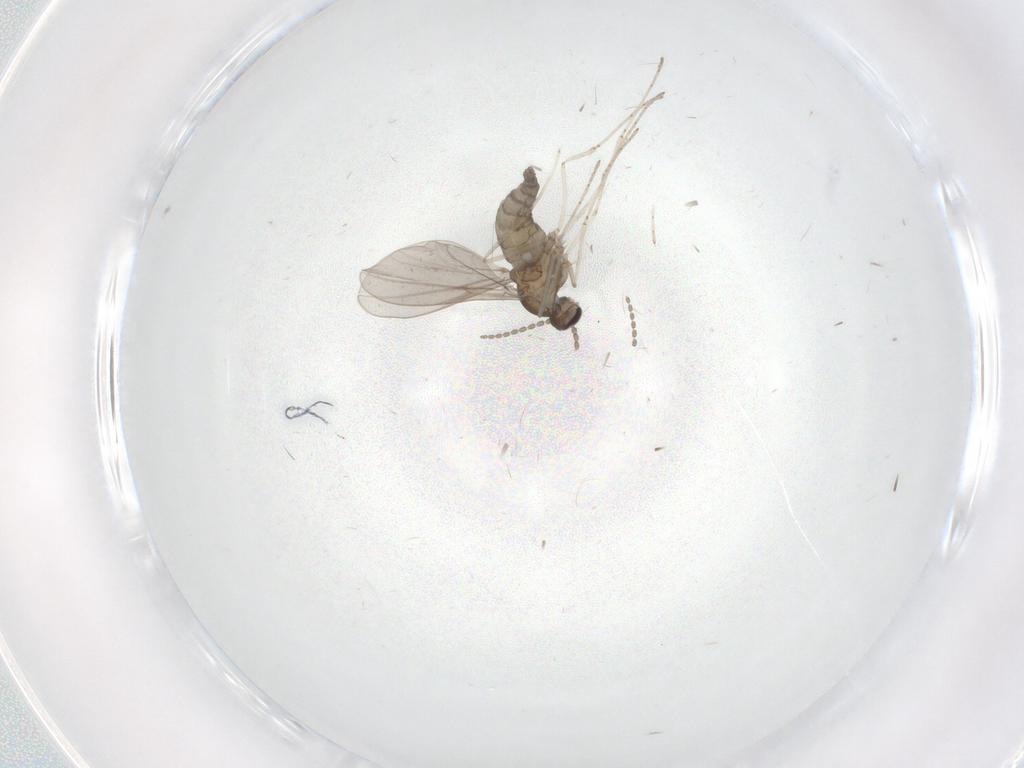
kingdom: Animalia
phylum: Arthropoda
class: Insecta
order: Diptera
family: Cecidomyiidae
